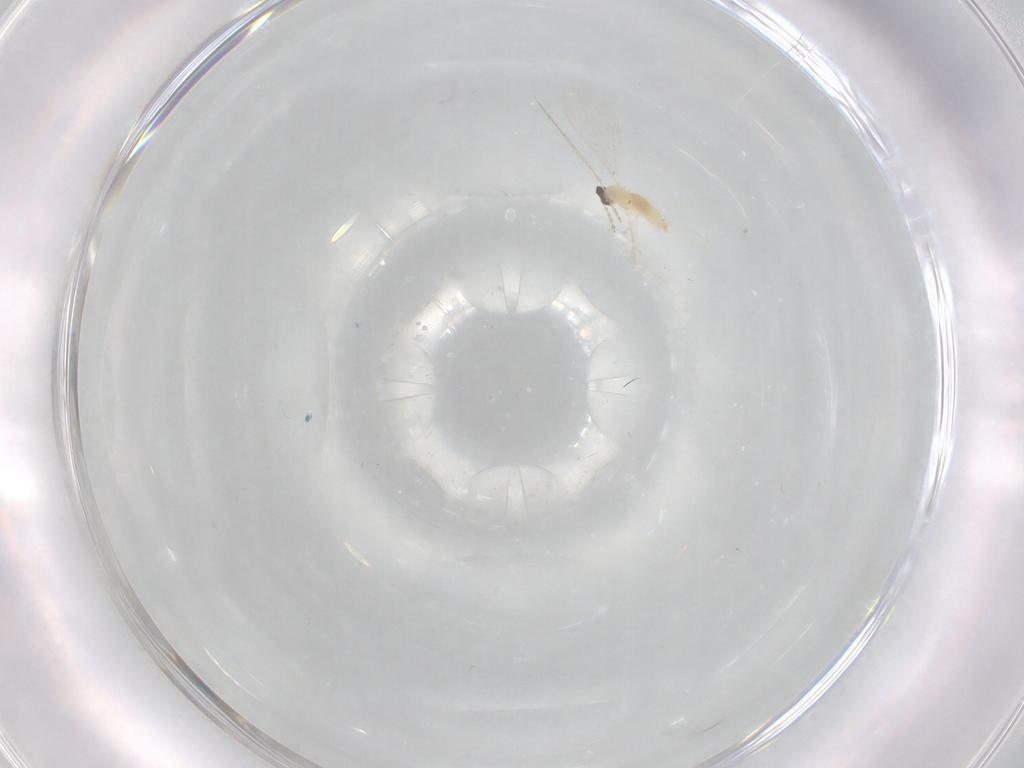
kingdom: Animalia
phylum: Arthropoda
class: Insecta
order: Diptera
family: Cecidomyiidae
